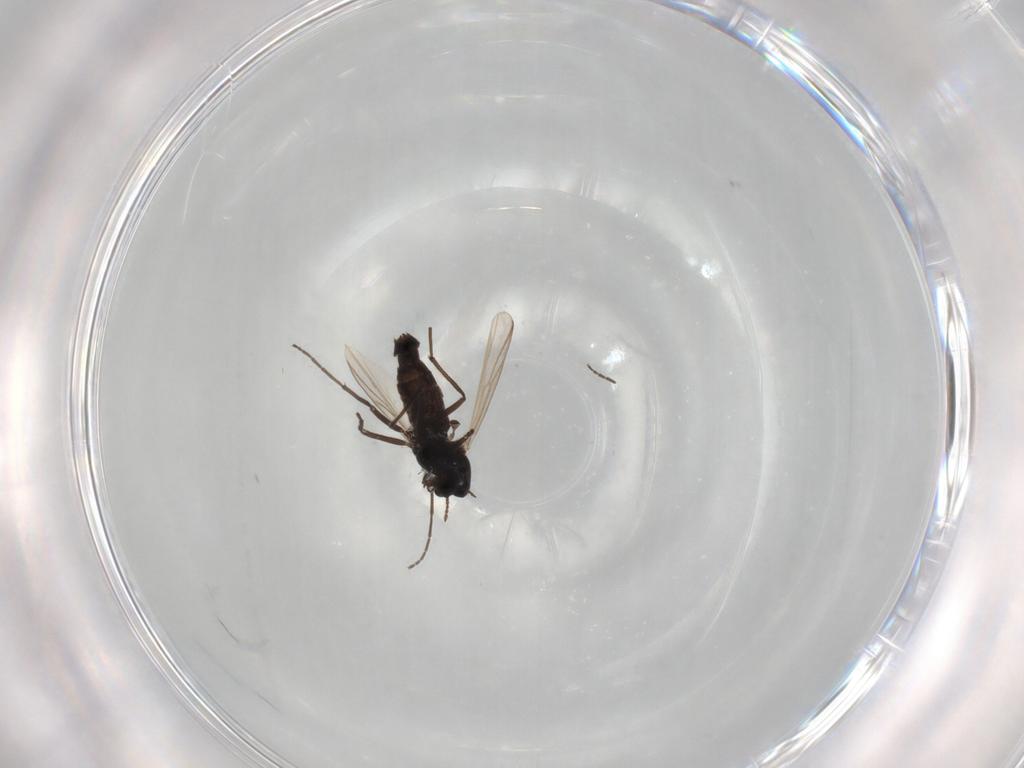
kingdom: Animalia
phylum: Arthropoda
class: Insecta
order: Diptera
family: Chironomidae
